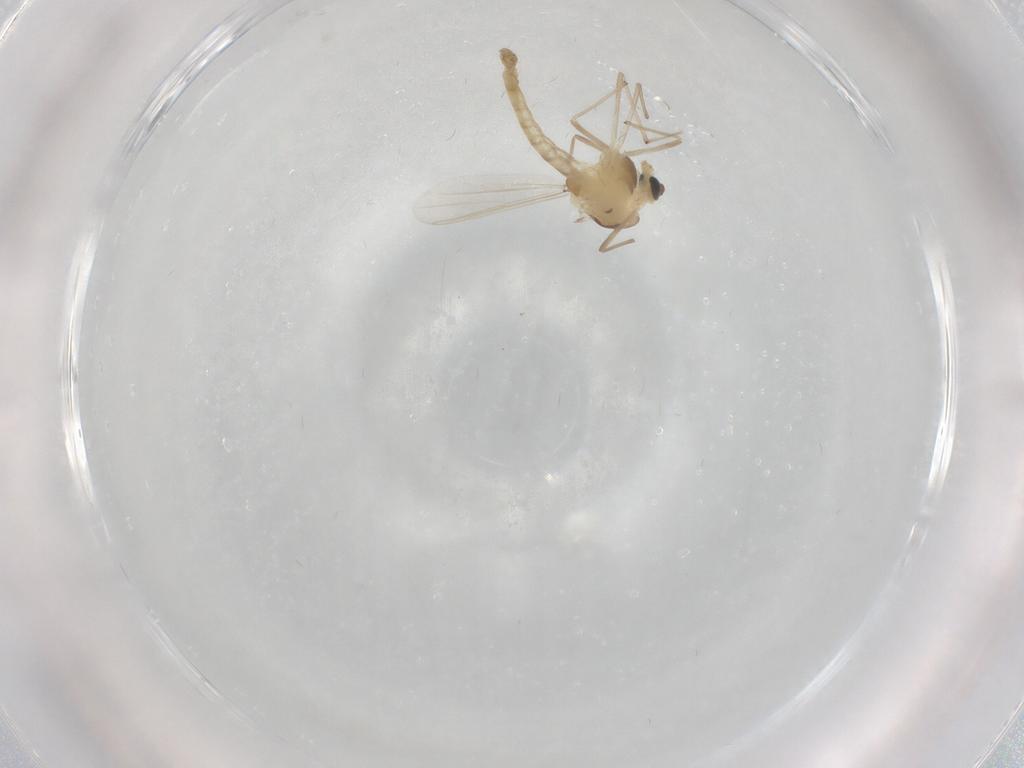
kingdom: Animalia
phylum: Arthropoda
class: Insecta
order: Diptera
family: Chironomidae
